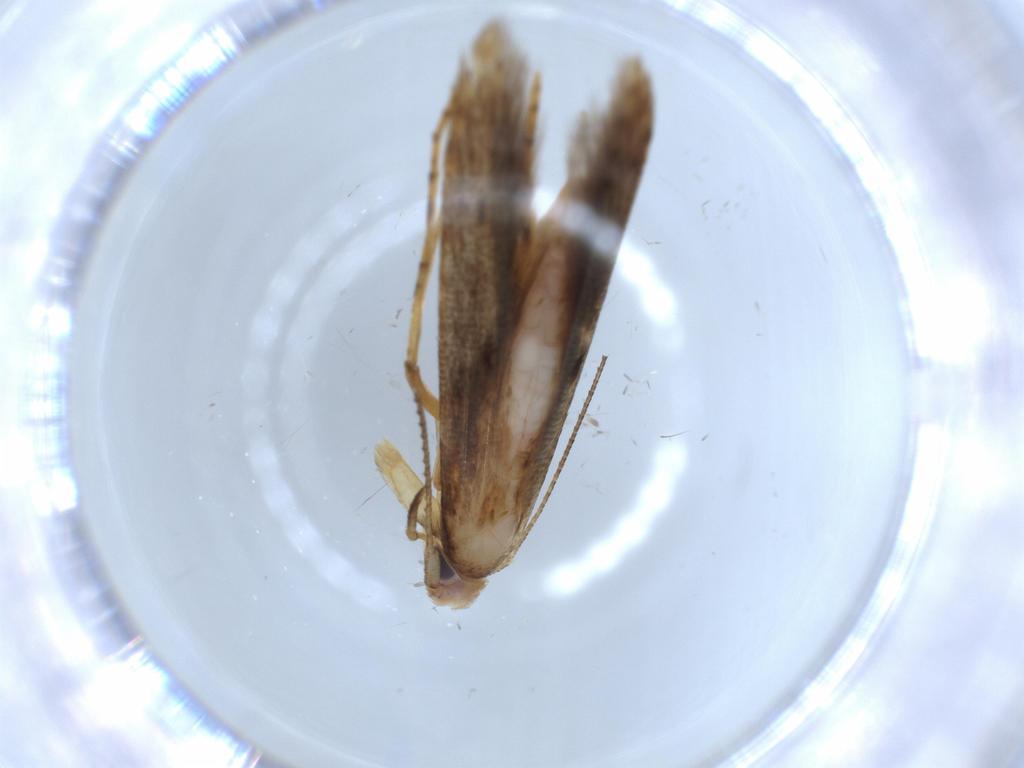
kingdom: Animalia
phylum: Arthropoda
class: Insecta
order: Lepidoptera
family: Heliodinidae
